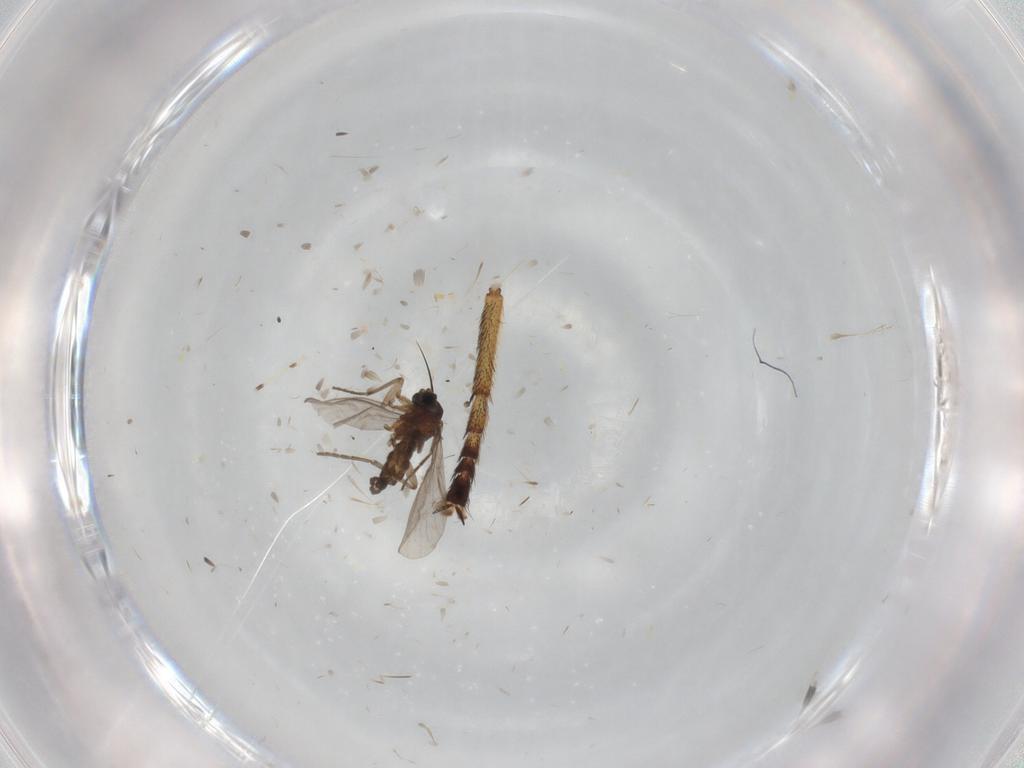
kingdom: Animalia
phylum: Arthropoda
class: Insecta
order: Diptera
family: Chaoboridae
